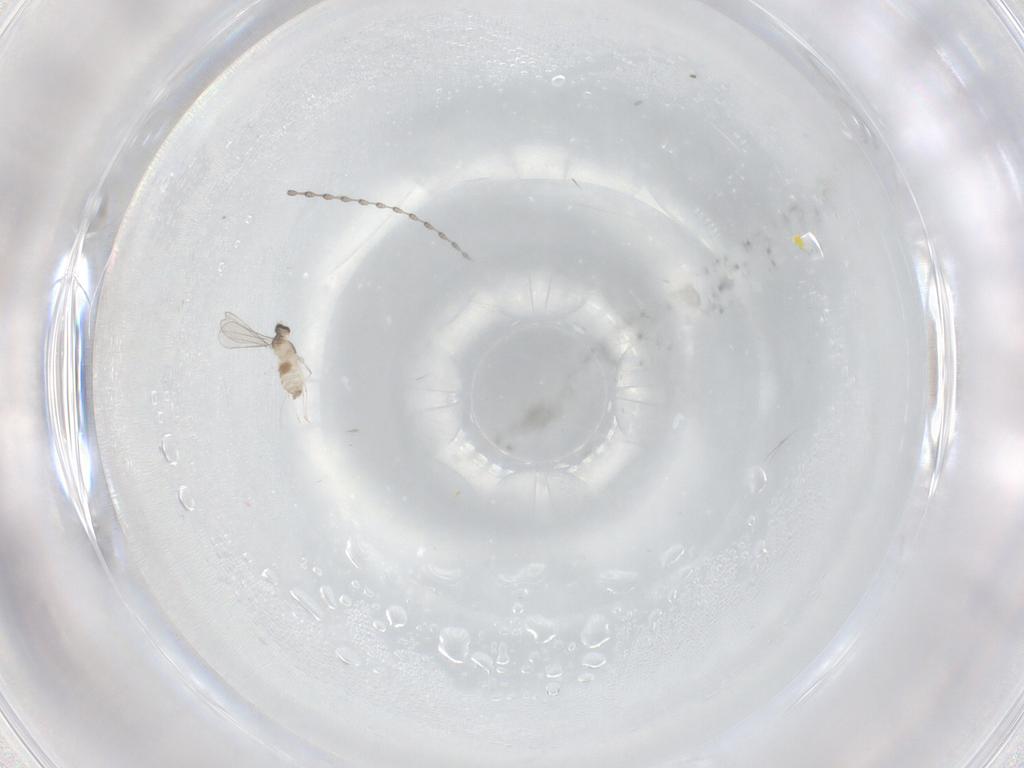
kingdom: Animalia
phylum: Arthropoda
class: Insecta
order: Diptera
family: Cecidomyiidae
